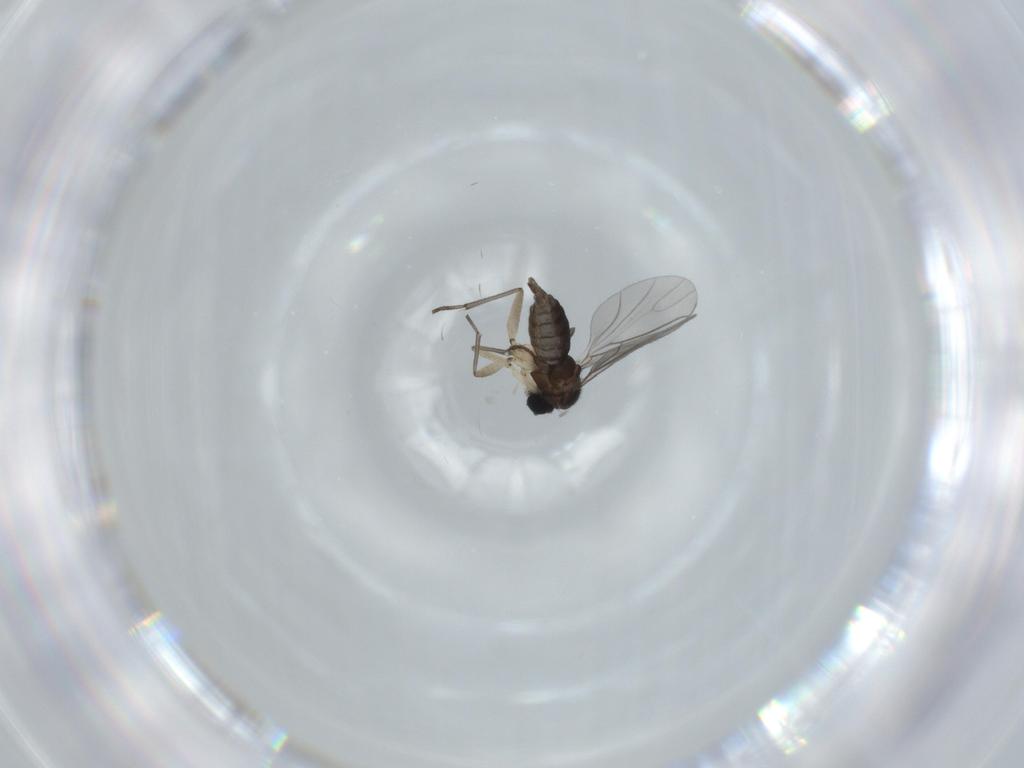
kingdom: Animalia
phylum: Arthropoda
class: Insecta
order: Diptera
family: Sciaridae
